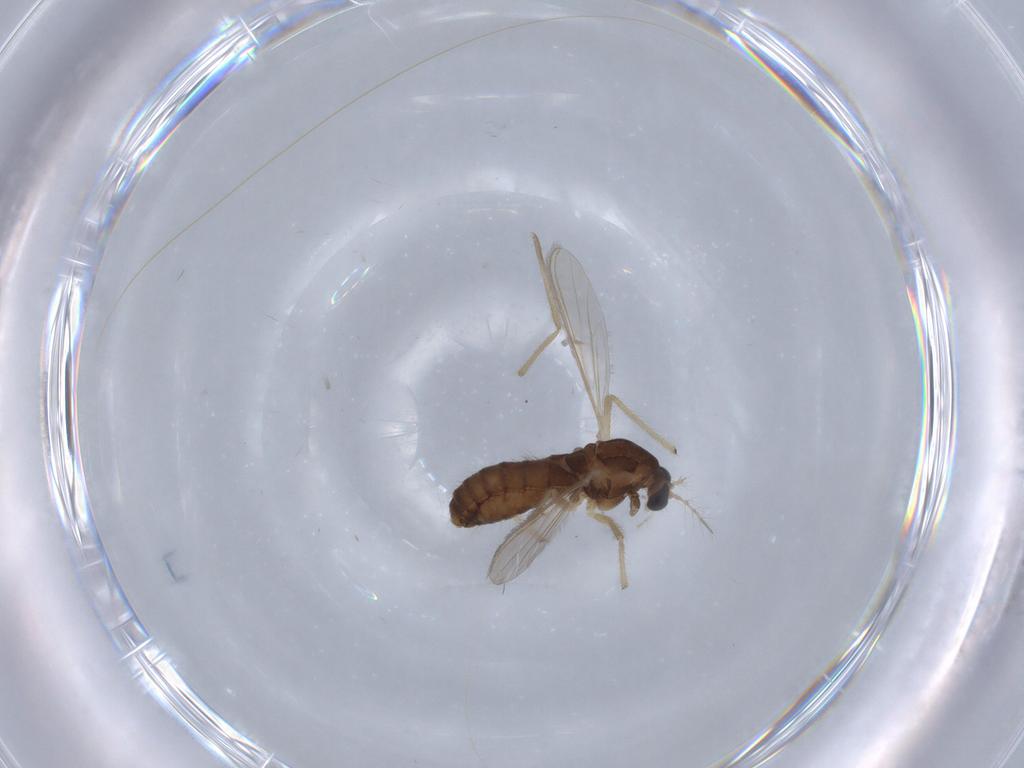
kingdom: Animalia
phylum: Arthropoda
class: Insecta
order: Diptera
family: Chironomidae
